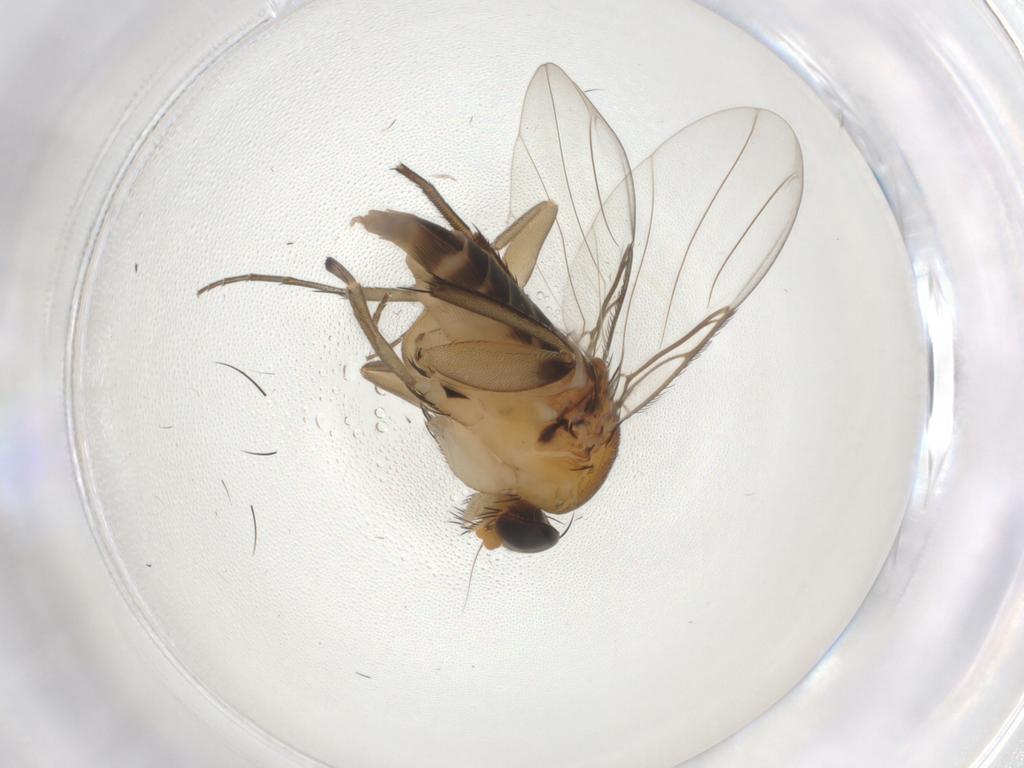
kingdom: Animalia
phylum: Arthropoda
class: Insecta
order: Diptera
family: Phoridae
